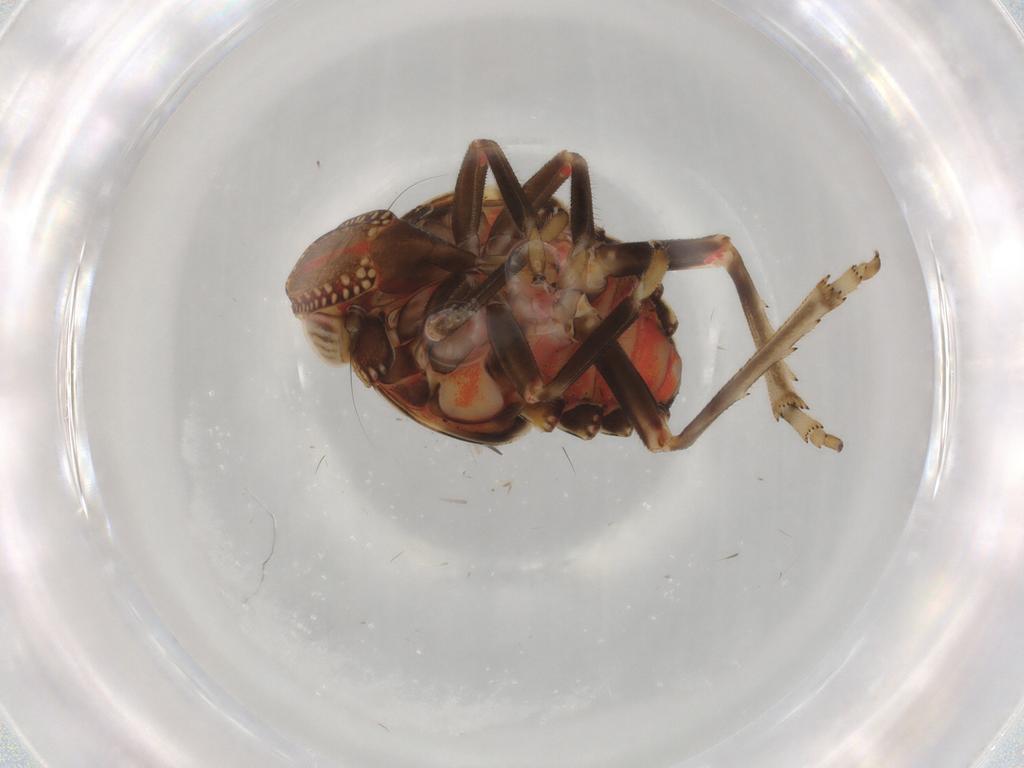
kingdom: Animalia
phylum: Arthropoda
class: Insecta
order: Hemiptera
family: Tropiduchidae
